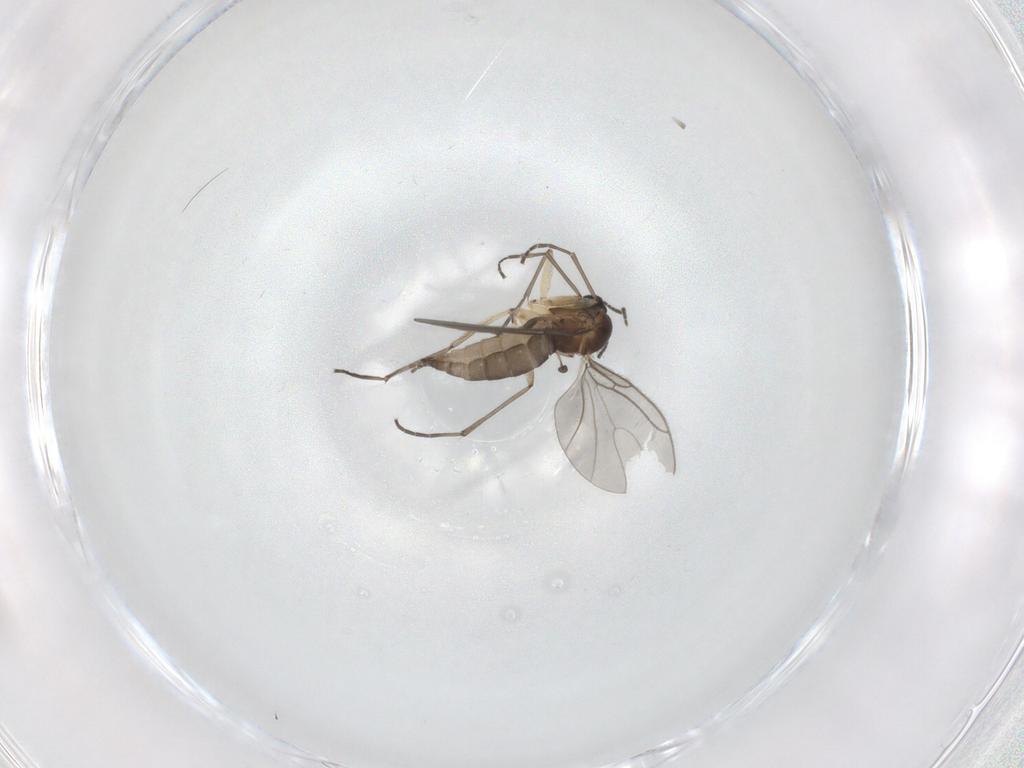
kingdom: Animalia
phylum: Arthropoda
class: Insecta
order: Diptera
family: Sciaridae
